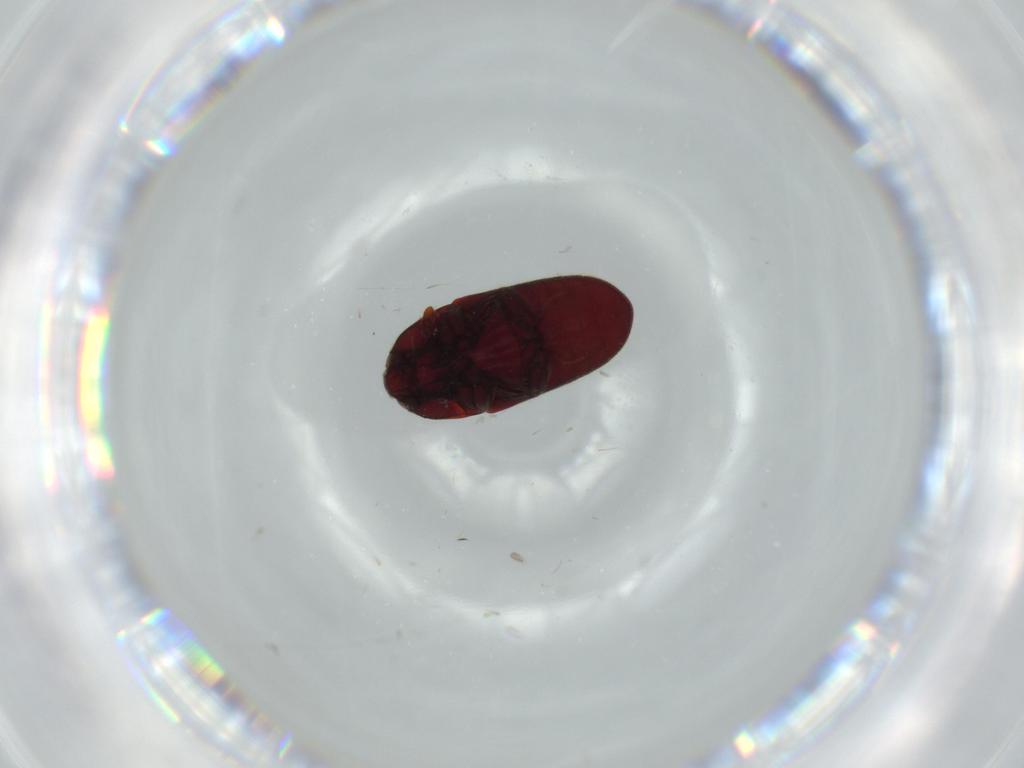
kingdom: Animalia
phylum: Arthropoda
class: Insecta
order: Coleoptera
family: Throscidae
